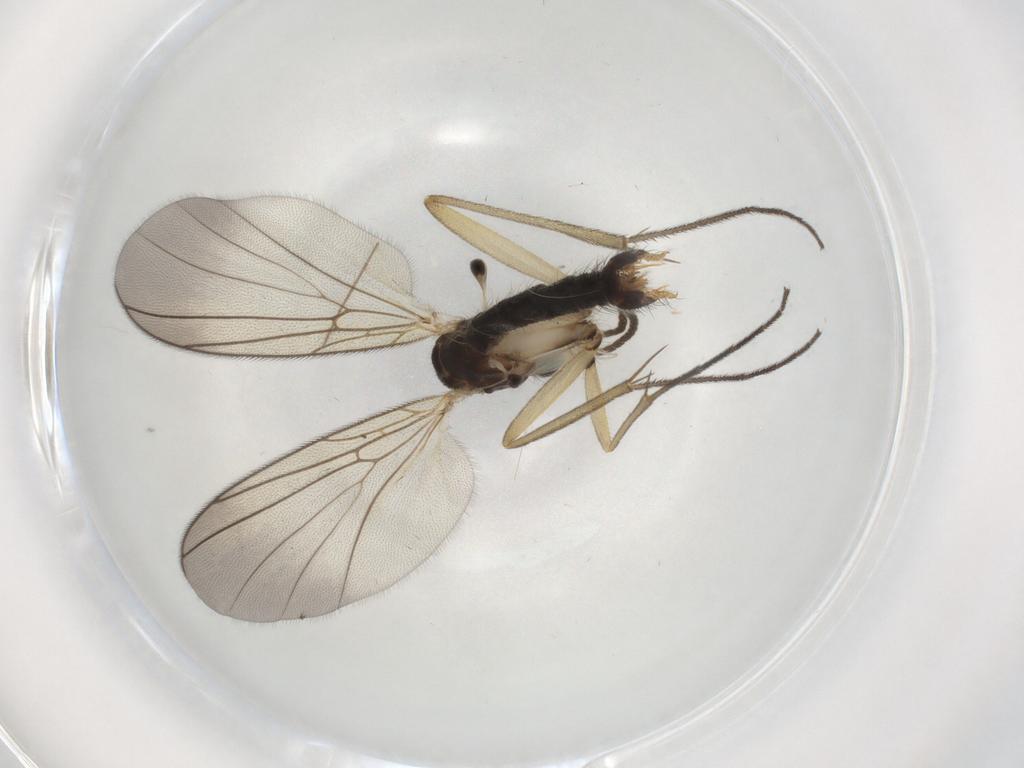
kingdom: Animalia
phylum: Arthropoda
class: Insecta
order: Diptera
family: Mycetophilidae
